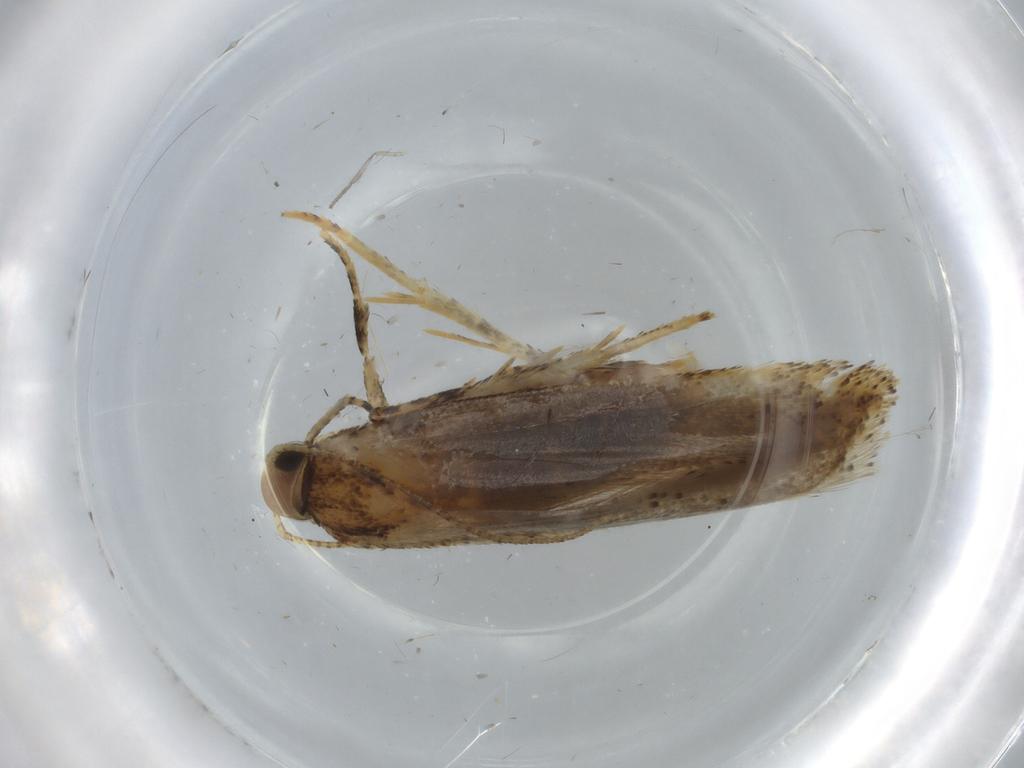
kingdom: Animalia
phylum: Arthropoda
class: Insecta
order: Lepidoptera
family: Gelechiidae
